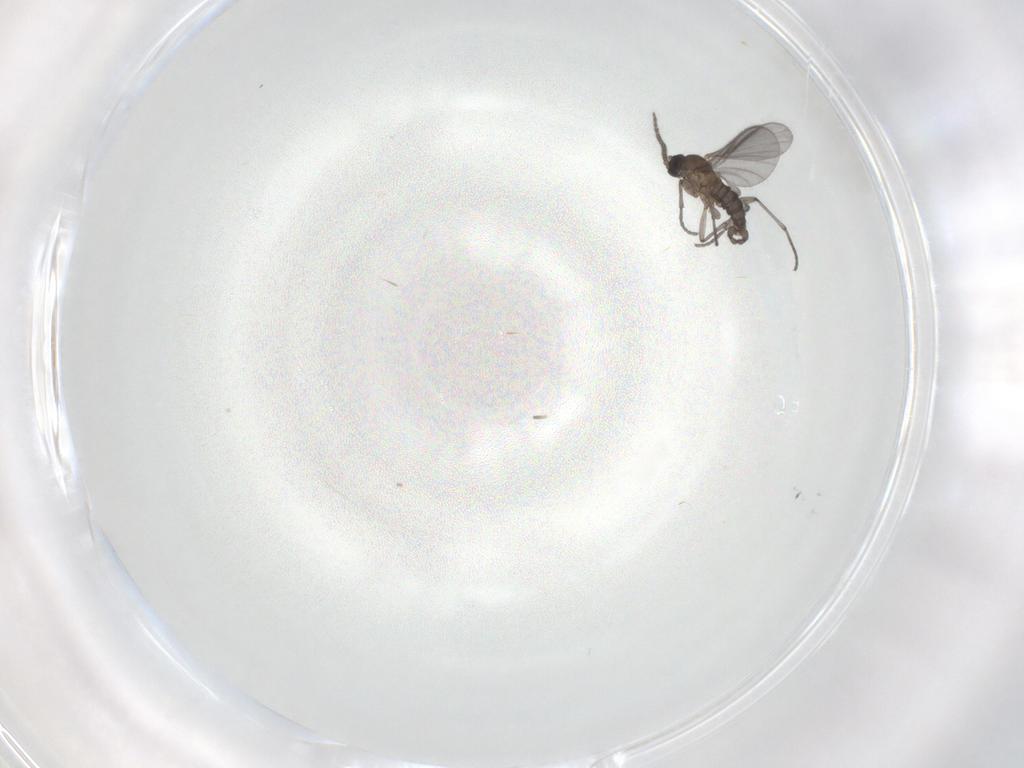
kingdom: Animalia
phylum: Arthropoda
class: Insecta
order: Diptera
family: Sciaridae
